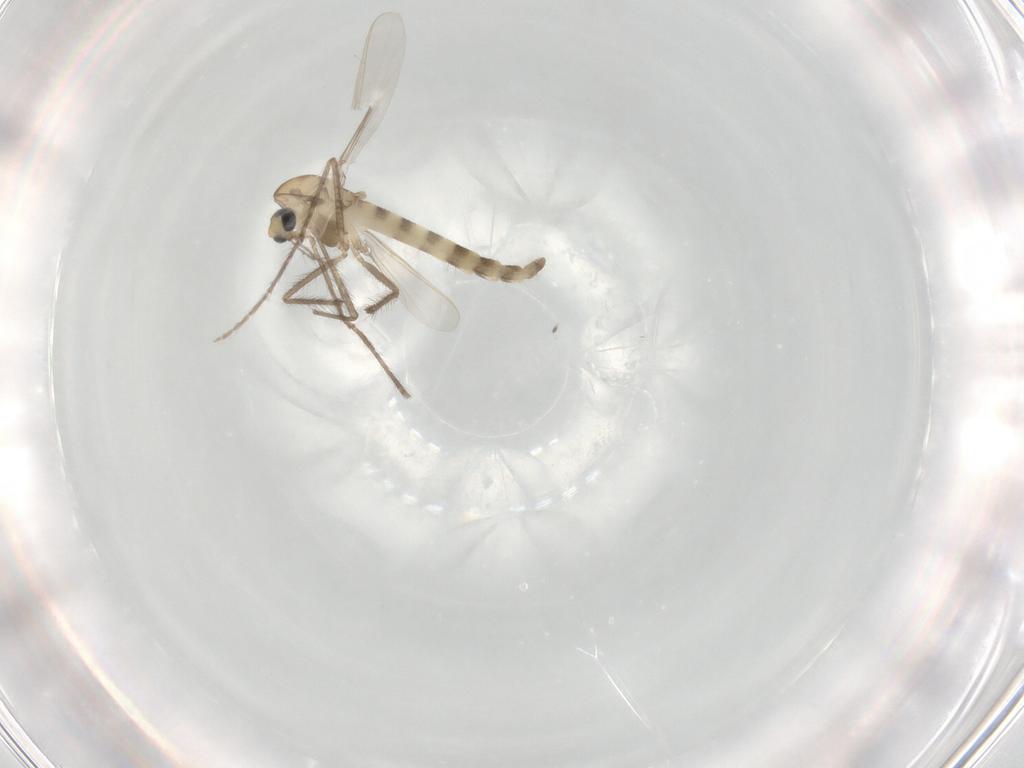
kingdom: Animalia
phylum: Arthropoda
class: Insecta
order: Diptera
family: Chironomidae
